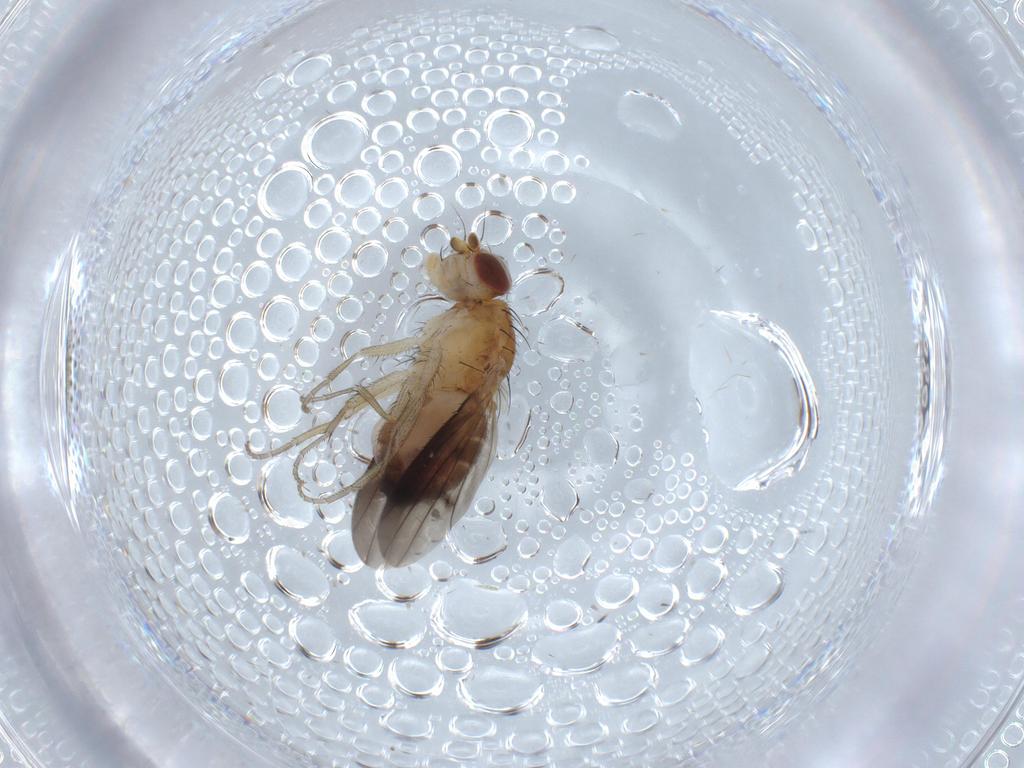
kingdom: Animalia
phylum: Arthropoda
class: Insecta
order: Diptera
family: Heleomyzidae
